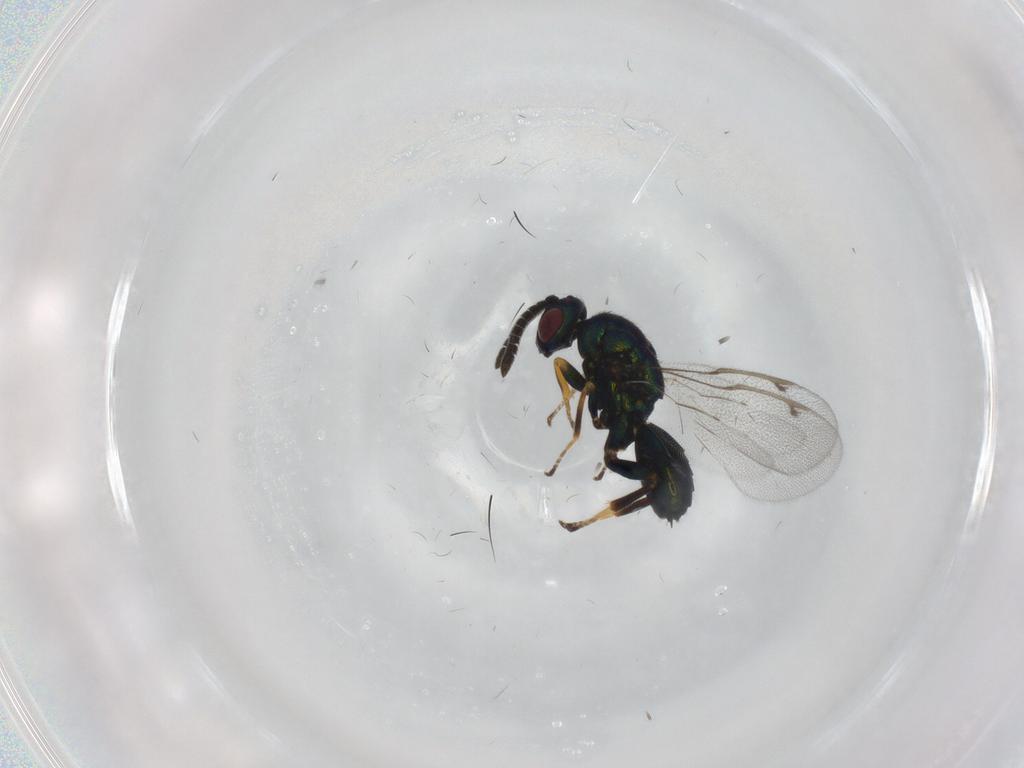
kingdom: Animalia
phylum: Arthropoda
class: Insecta
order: Hymenoptera
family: Torymidae
